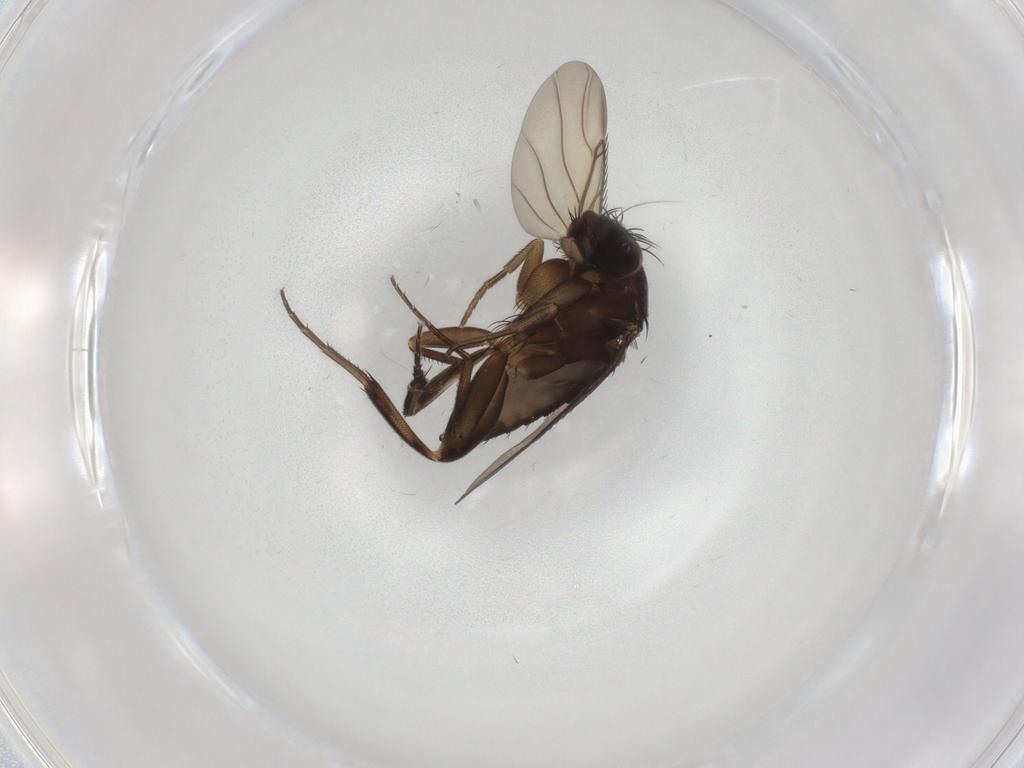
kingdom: Animalia
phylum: Arthropoda
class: Insecta
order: Diptera
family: Phoridae
